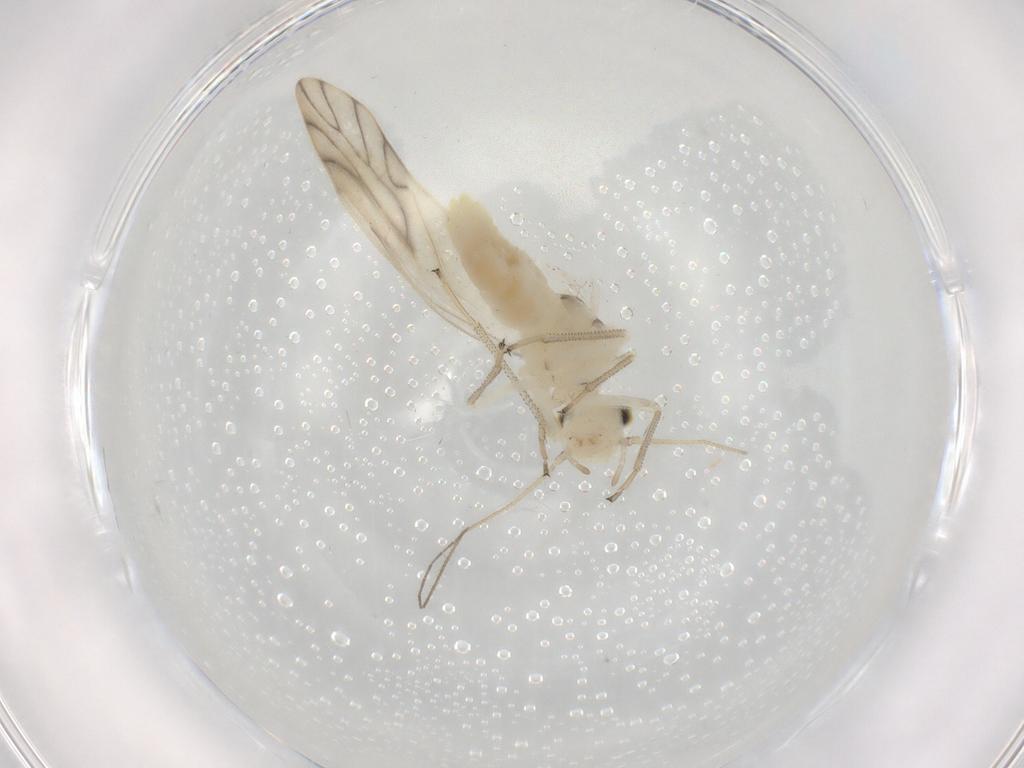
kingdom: Animalia
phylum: Arthropoda
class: Insecta
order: Psocodea
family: Caeciliusidae
